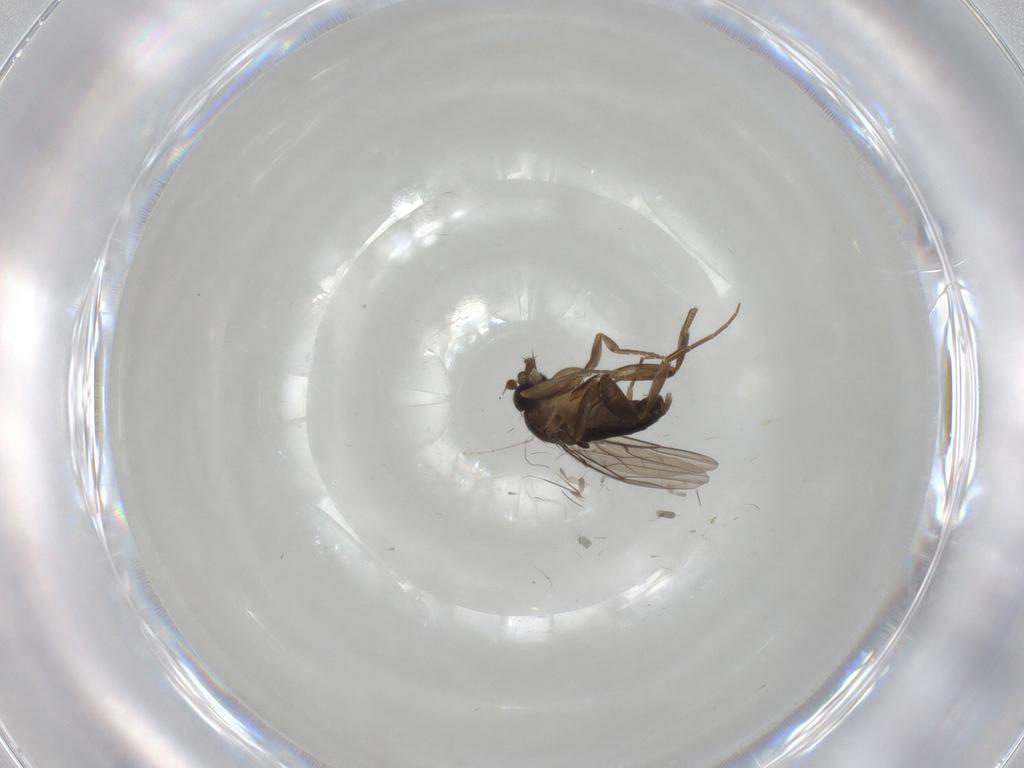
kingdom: Animalia
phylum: Arthropoda
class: Insecta
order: Diptera
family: Phoridae
